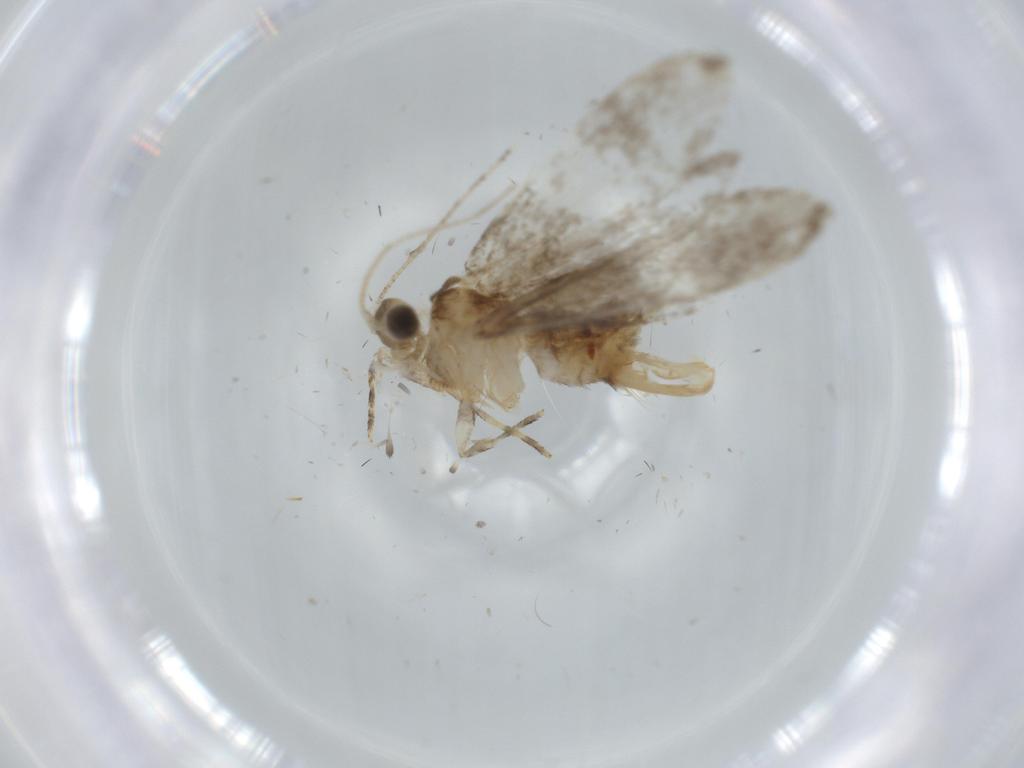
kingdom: Animalia
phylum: Arthropoda
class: Insecta
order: Lepidoptera
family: Tineidae
